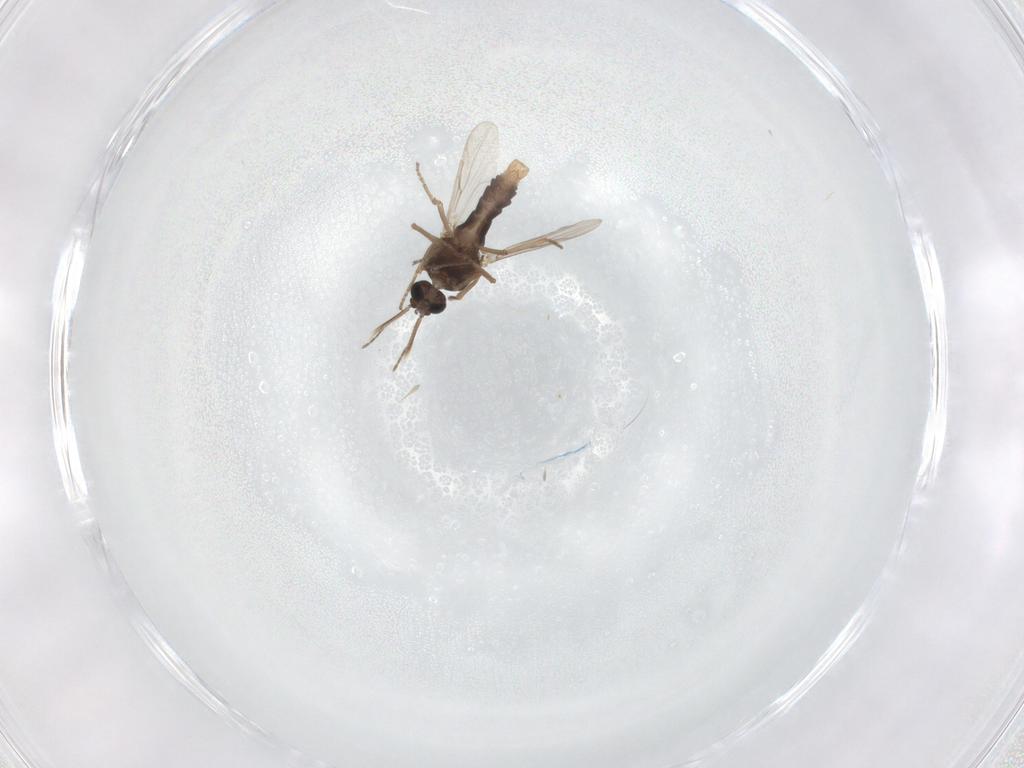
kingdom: Animalia
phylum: Arthropoda
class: Insecta
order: Diptera
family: Ceratopogonidae
